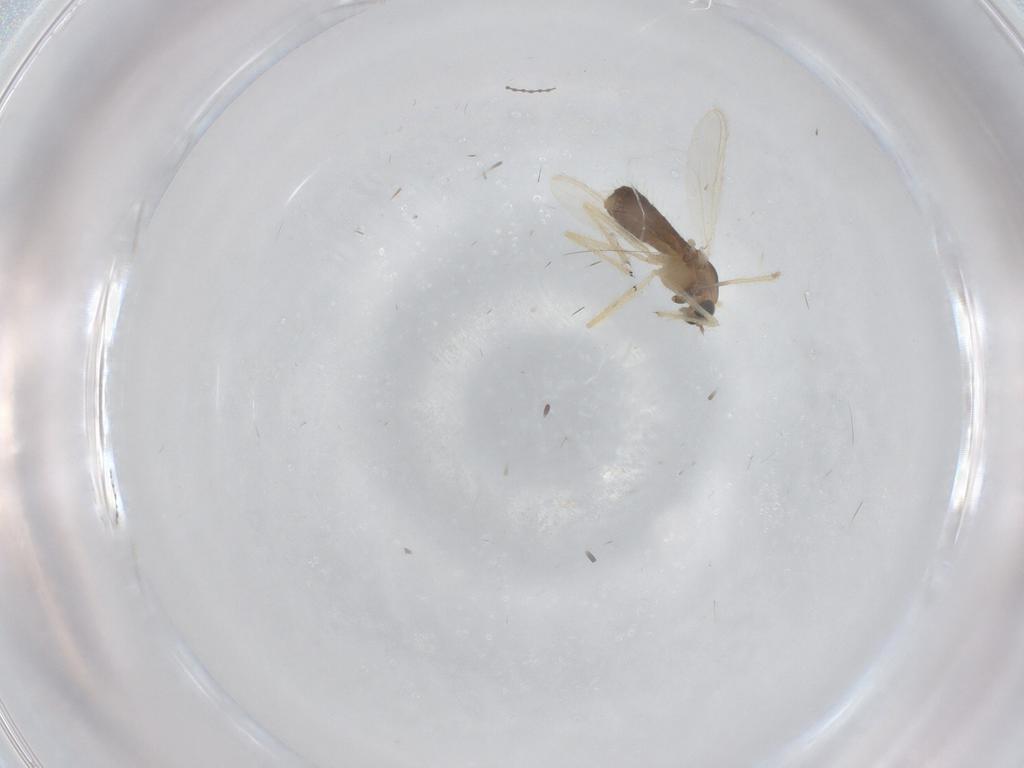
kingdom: Animalia
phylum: Arthropoda
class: Insecta
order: Diptera
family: Chironomidae
